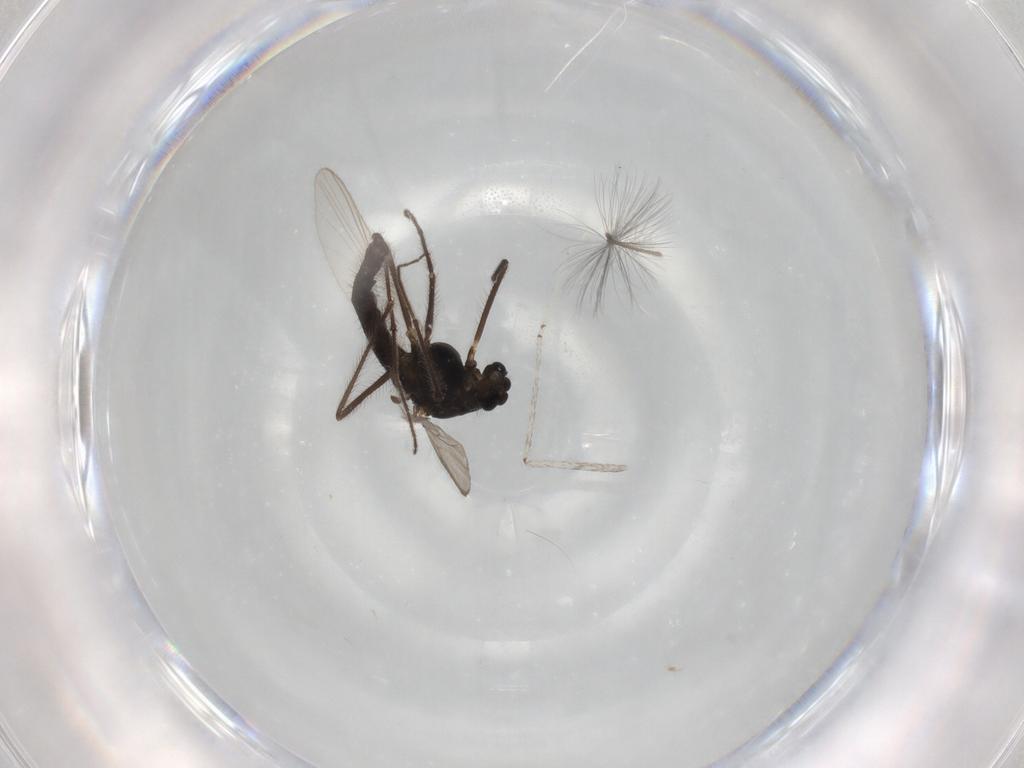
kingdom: Animalia
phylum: Arthropoda
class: Insecta
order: Diptera
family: Chironomidae
